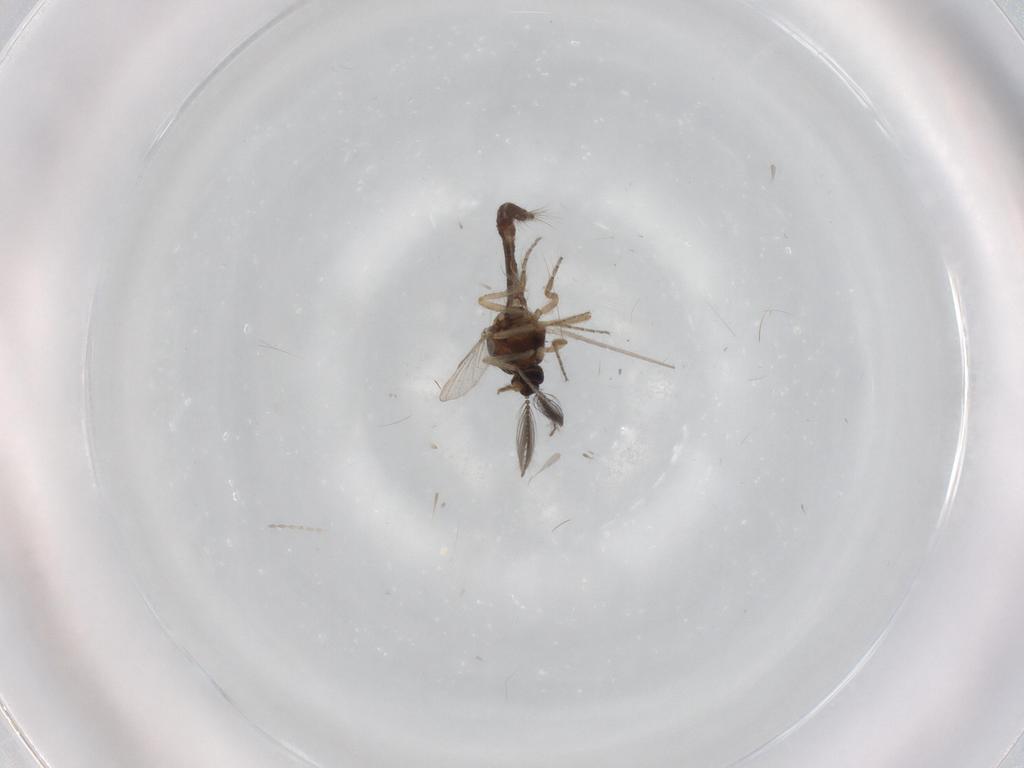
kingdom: Animalia
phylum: Arthropoda
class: Insecta
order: Diptera
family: Ceratopogonidae
